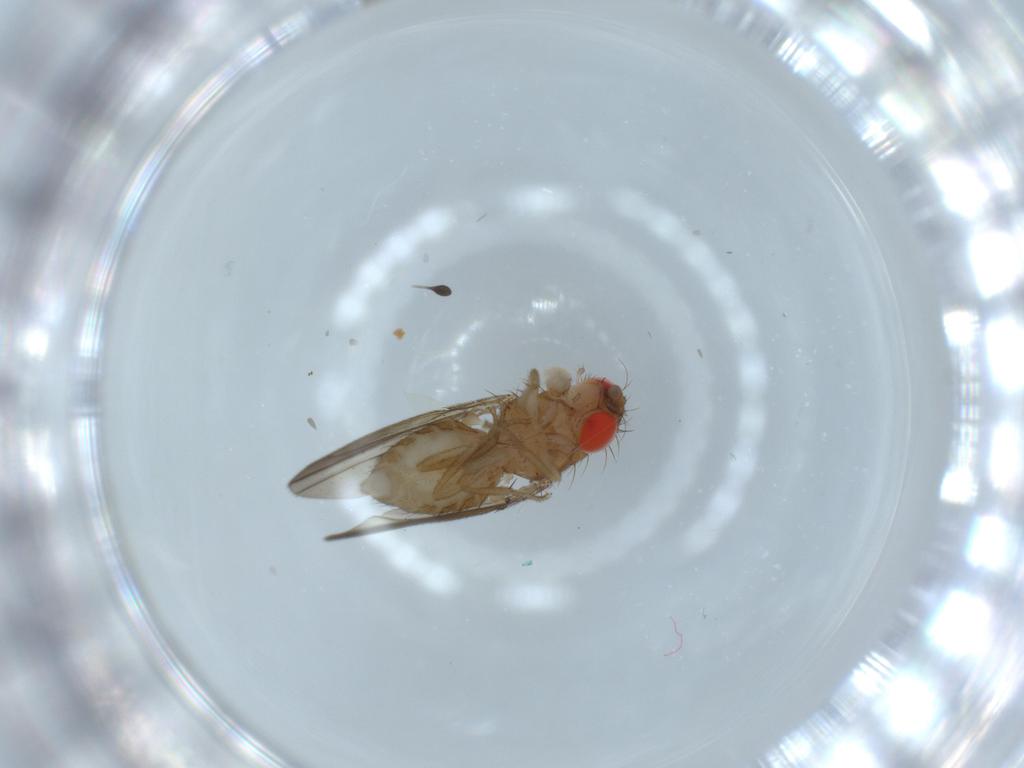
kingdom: Animalia
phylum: Arthropoda
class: Insecta
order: Diptera
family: Drosophilidae
